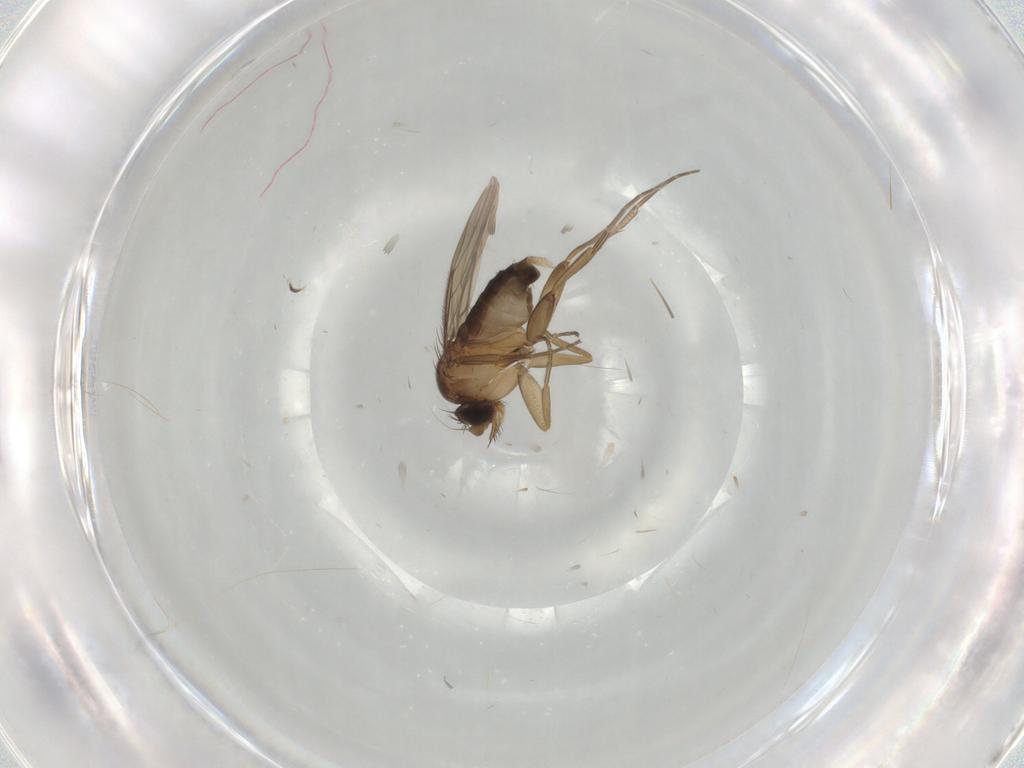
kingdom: Animalia
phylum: Arthropoda
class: Insecta
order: Diptera
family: Phoridae
